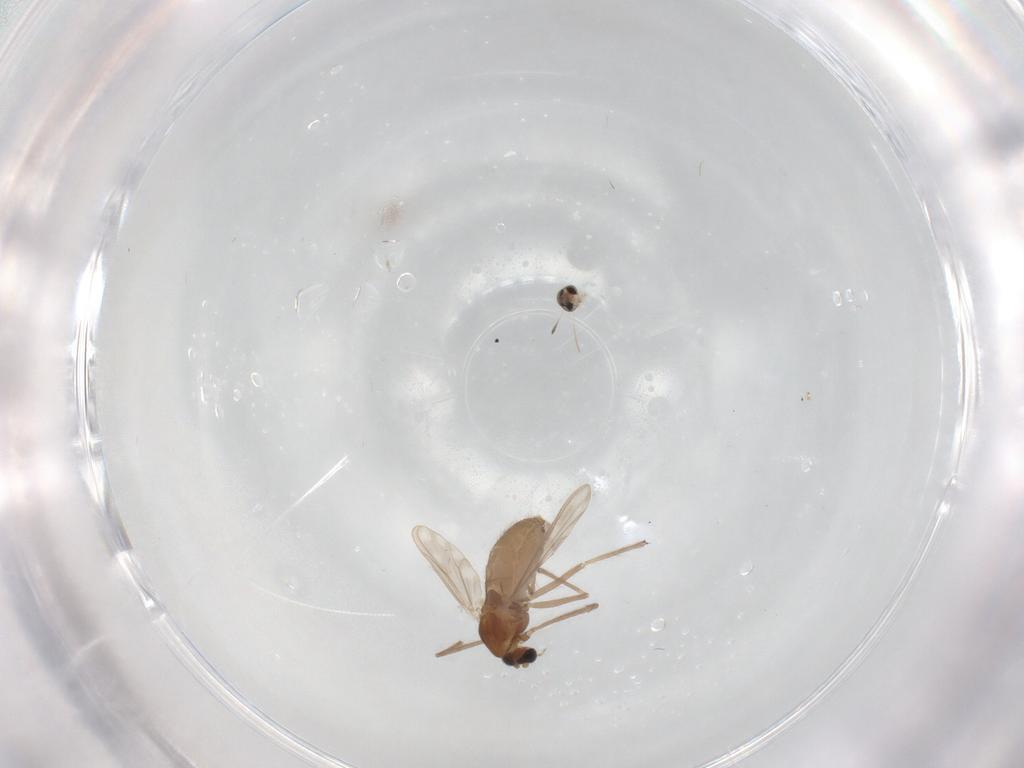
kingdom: Animalia
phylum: Arthropoda
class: Insecta
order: Diptera
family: Chironomidae
